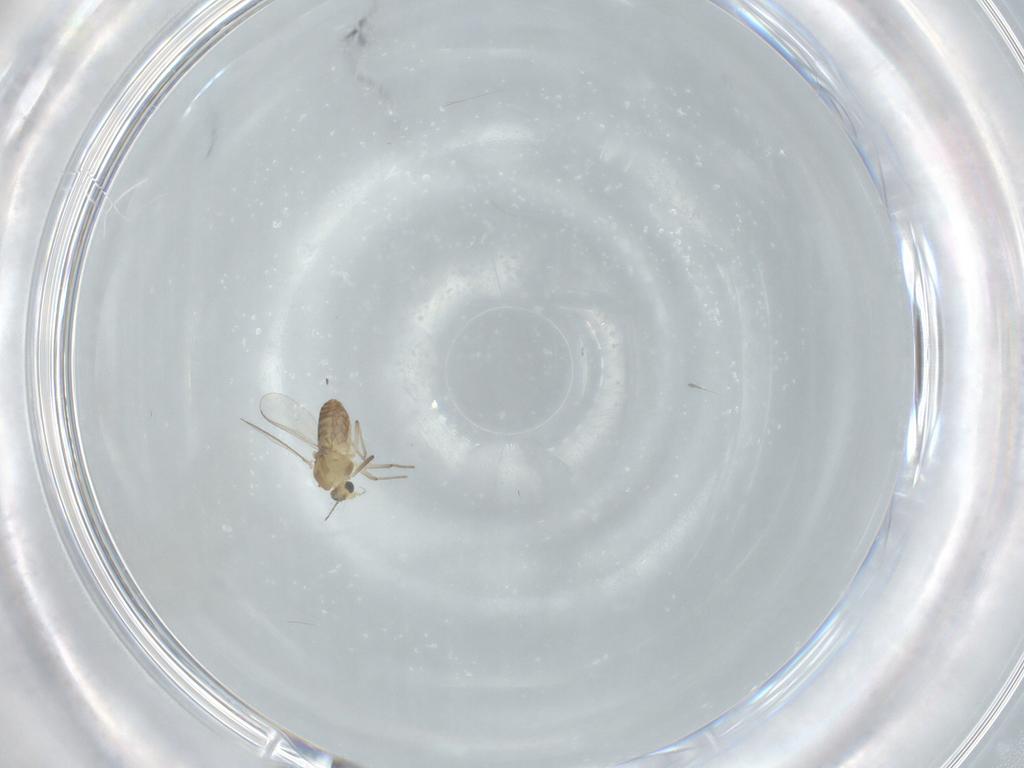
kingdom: Animalia
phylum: Arthropoda
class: Insecta
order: Diptera
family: Chironomidae
